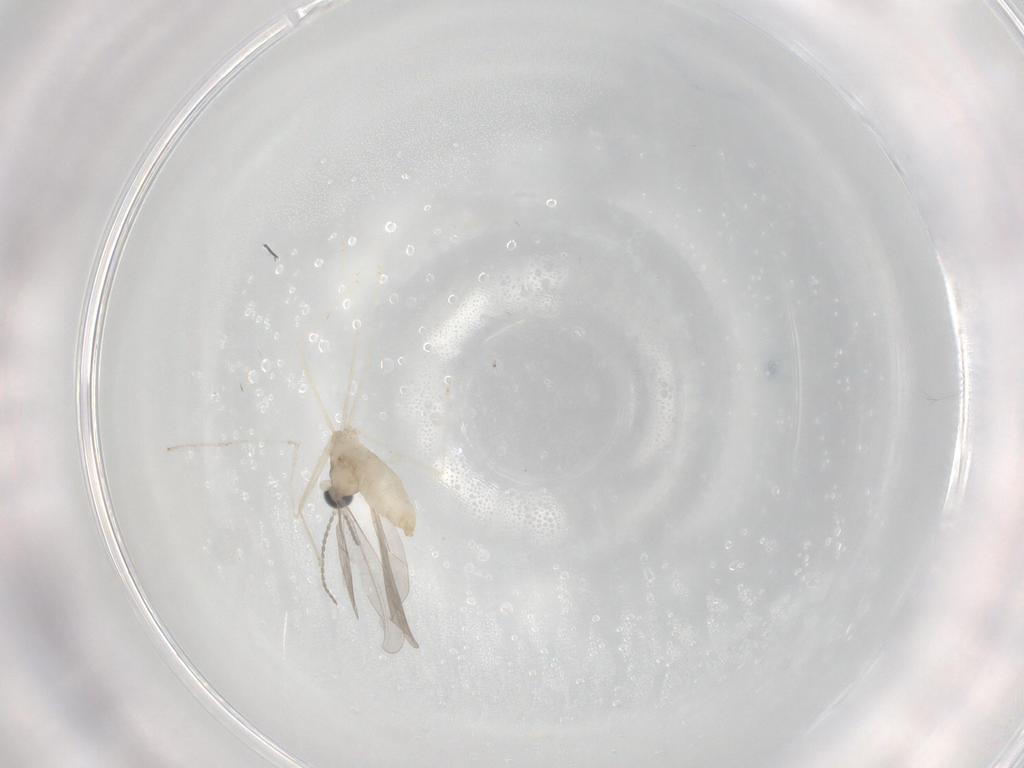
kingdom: Animalia
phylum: Arthropoda
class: Insecta
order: Diptera
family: Cecidomyiidae
